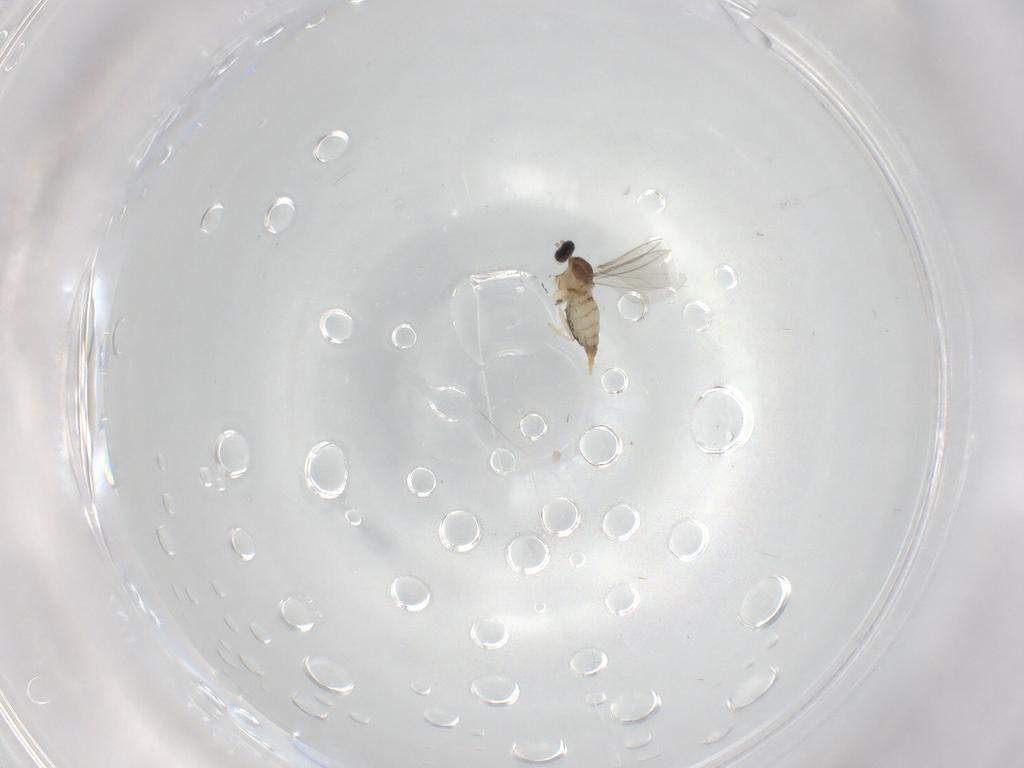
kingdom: Animalia
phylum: Arthropoda
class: Insecta
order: Diptera
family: Cecidomyiidae
